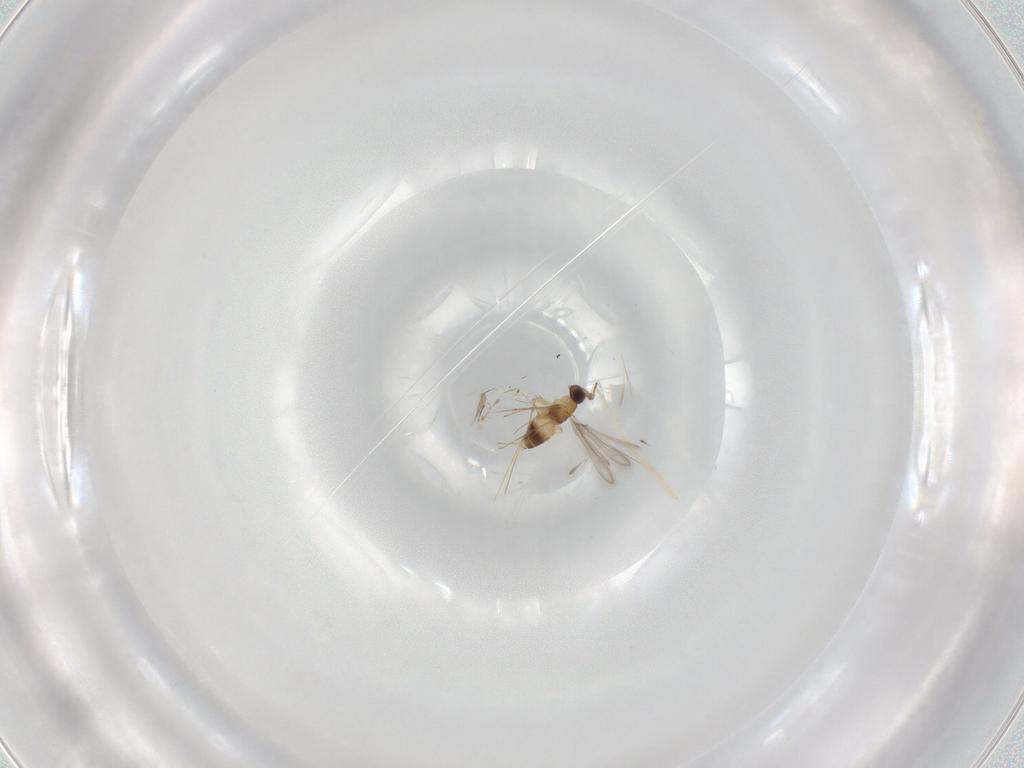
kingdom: Animalia
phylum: Arthropoda
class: Insecta
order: Hymenoptera
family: Mymaridae
